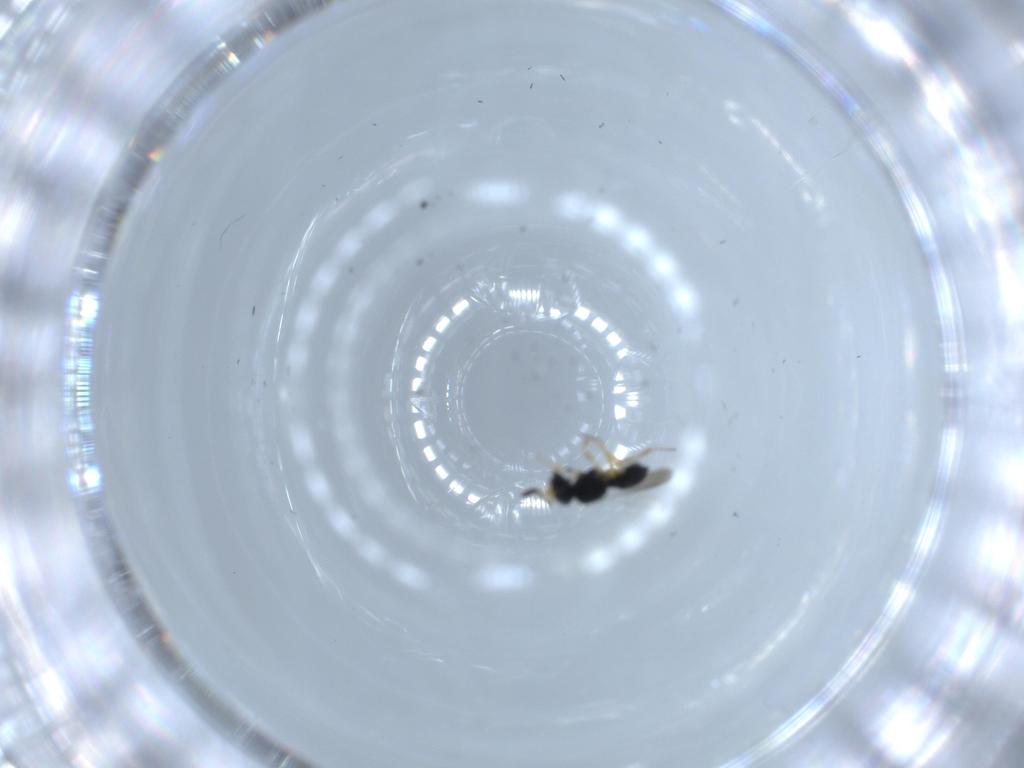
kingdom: Animalia
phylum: Arthropoda
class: Insecta
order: Hymenoptera
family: Scelionidae
